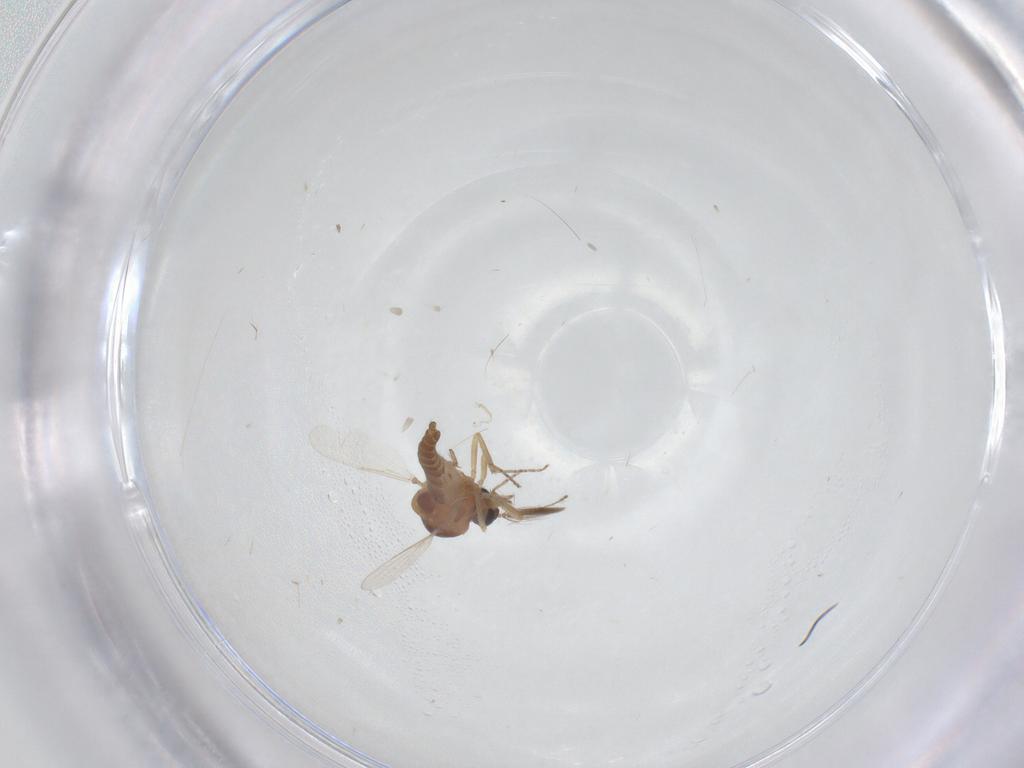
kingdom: Animalia
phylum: Arthropoda
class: Insecta
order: Diptera
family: Ceratopogonidae
